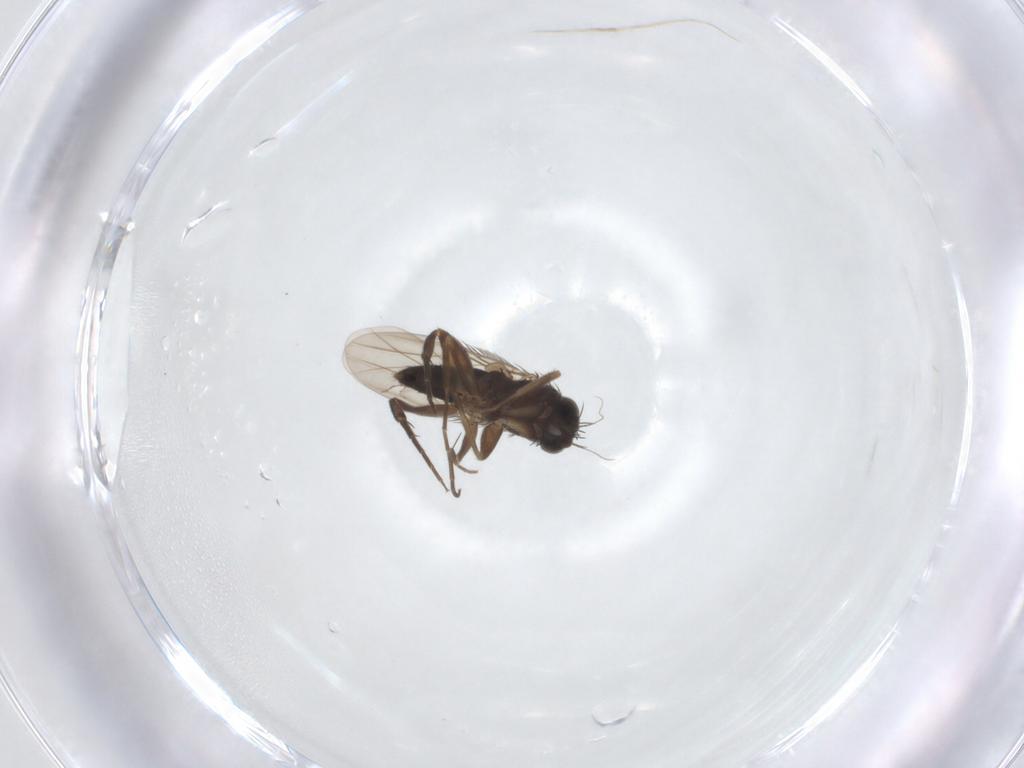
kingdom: Animalia
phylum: Arthropoda
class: Insecta
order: Diptera
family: Phoridae
